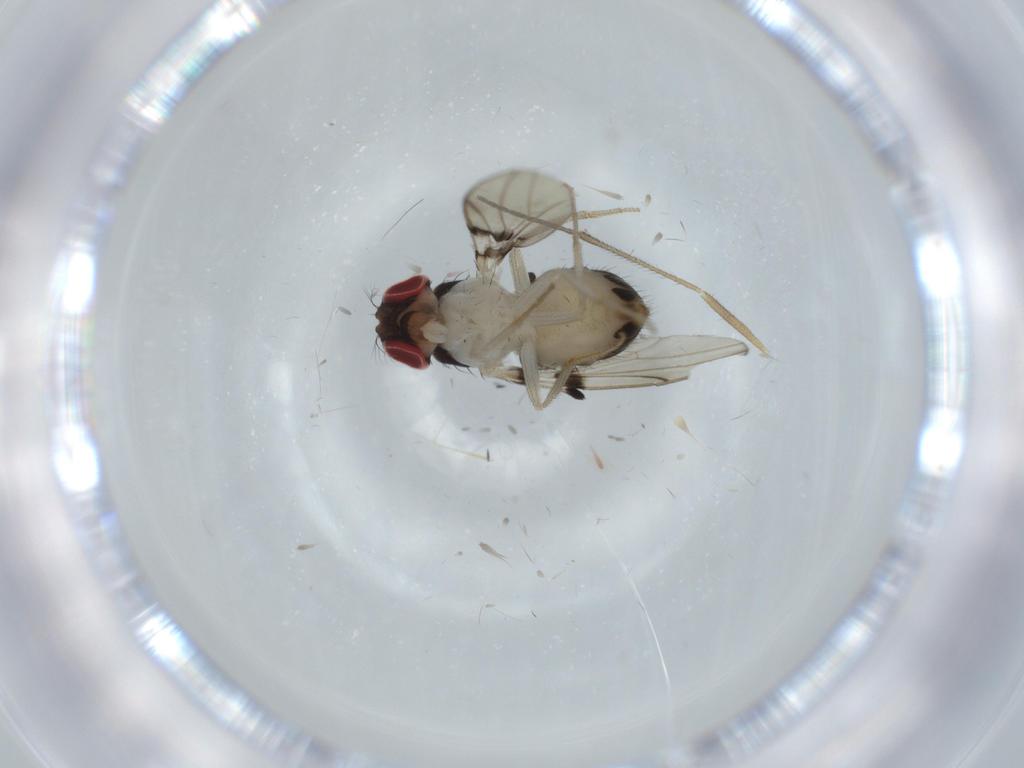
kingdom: Animalia
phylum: Arthropoda
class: Insecta
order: Diptera
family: Drosophilidae
